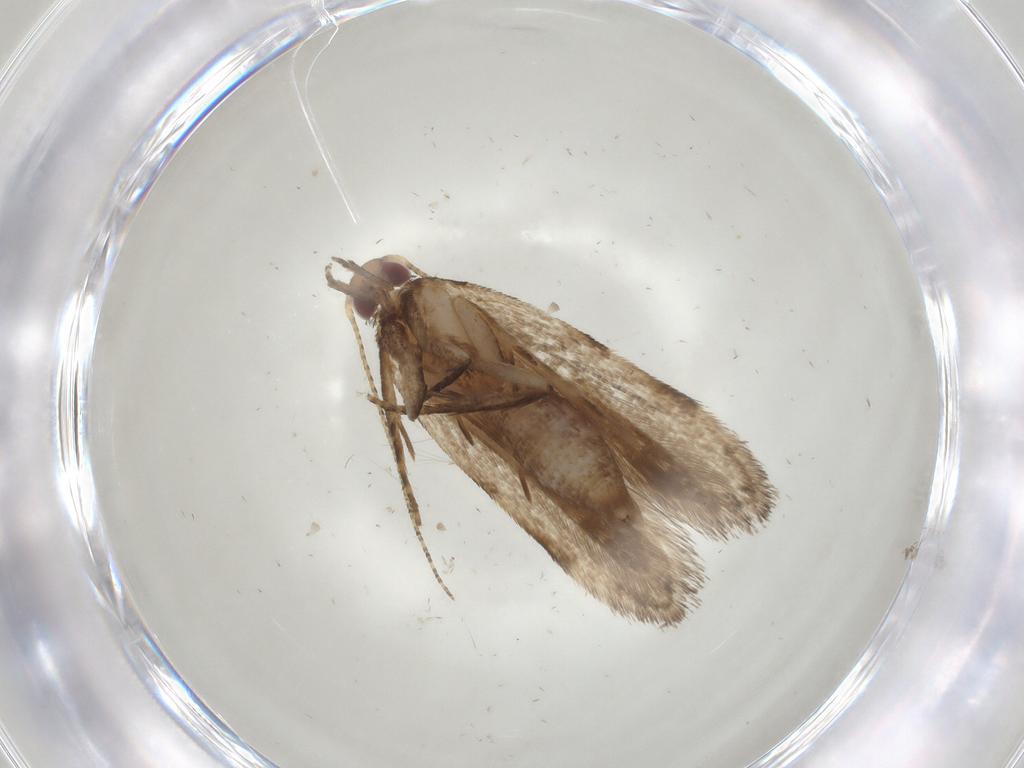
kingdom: Animalia
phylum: Arthropoda
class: Insecta
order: Lepidoptera
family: Gelechiidae
